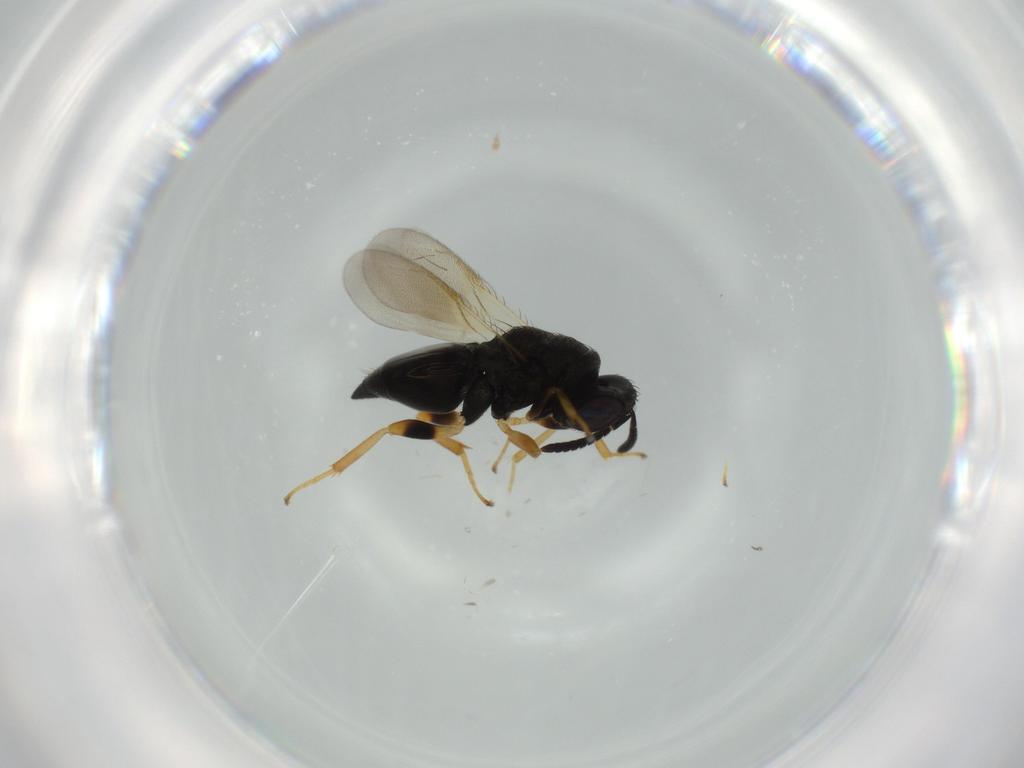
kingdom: Animalia
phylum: Arthropoda
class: Insecta
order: Hymenoptera
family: Pteromalidae
